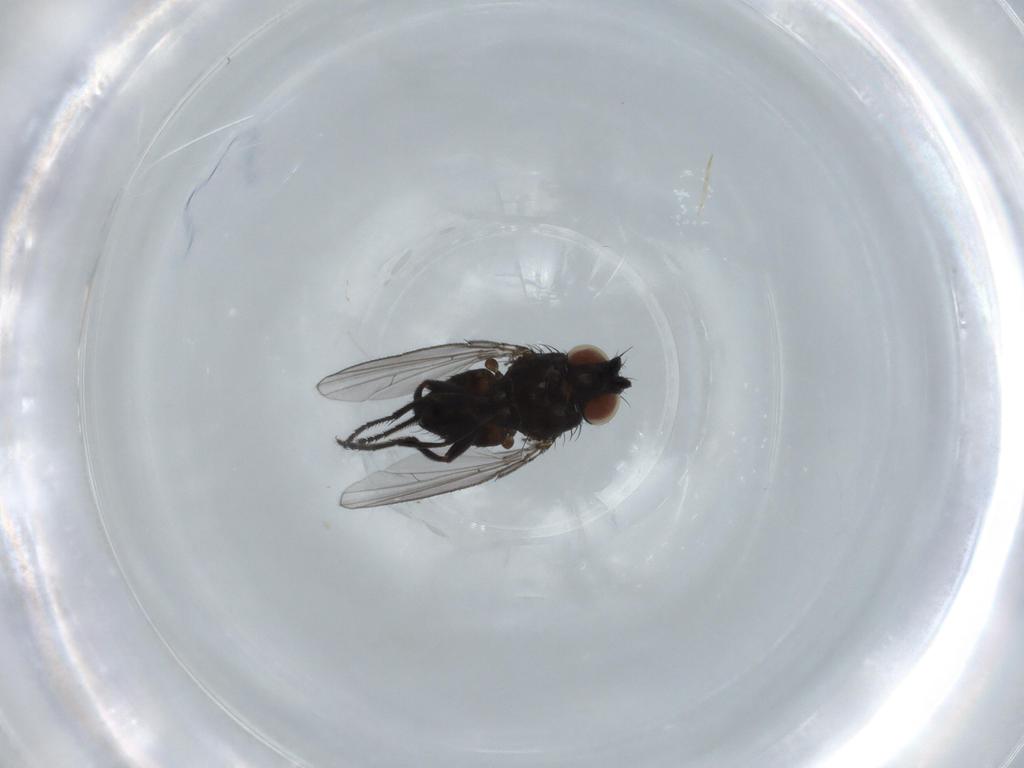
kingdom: Animalia
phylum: Arthropoda
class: Insecta
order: Diptera
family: Milichiidae
